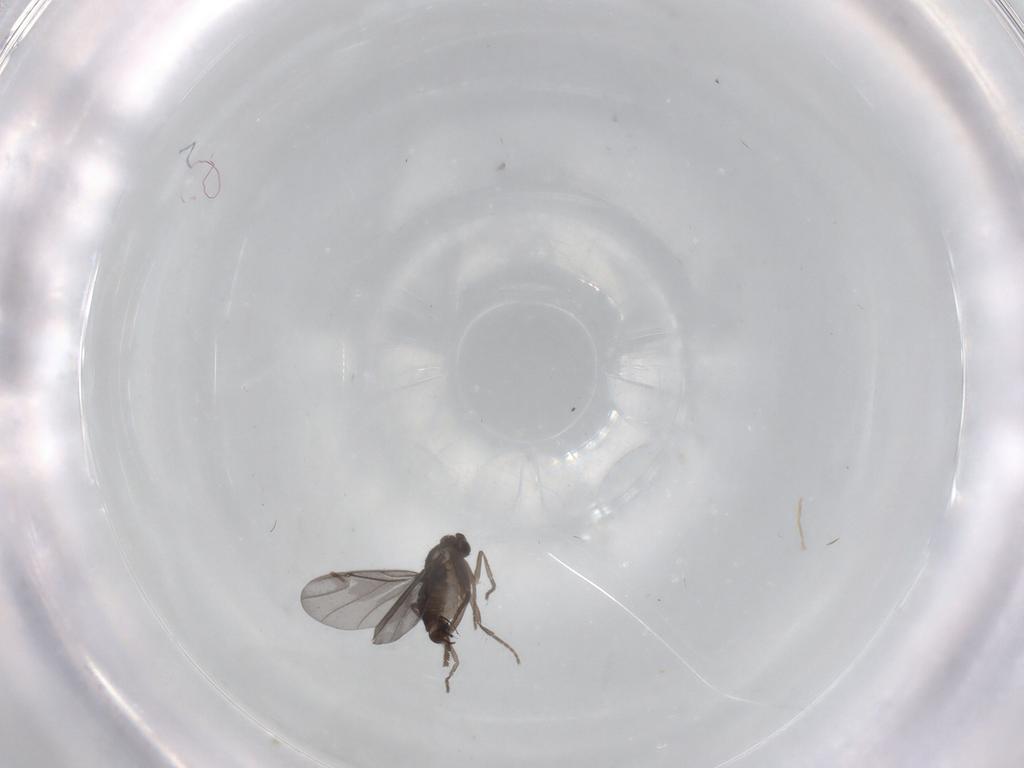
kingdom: Animalia
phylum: Arthropoda
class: Insecta
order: Diptera
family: Phoridae
